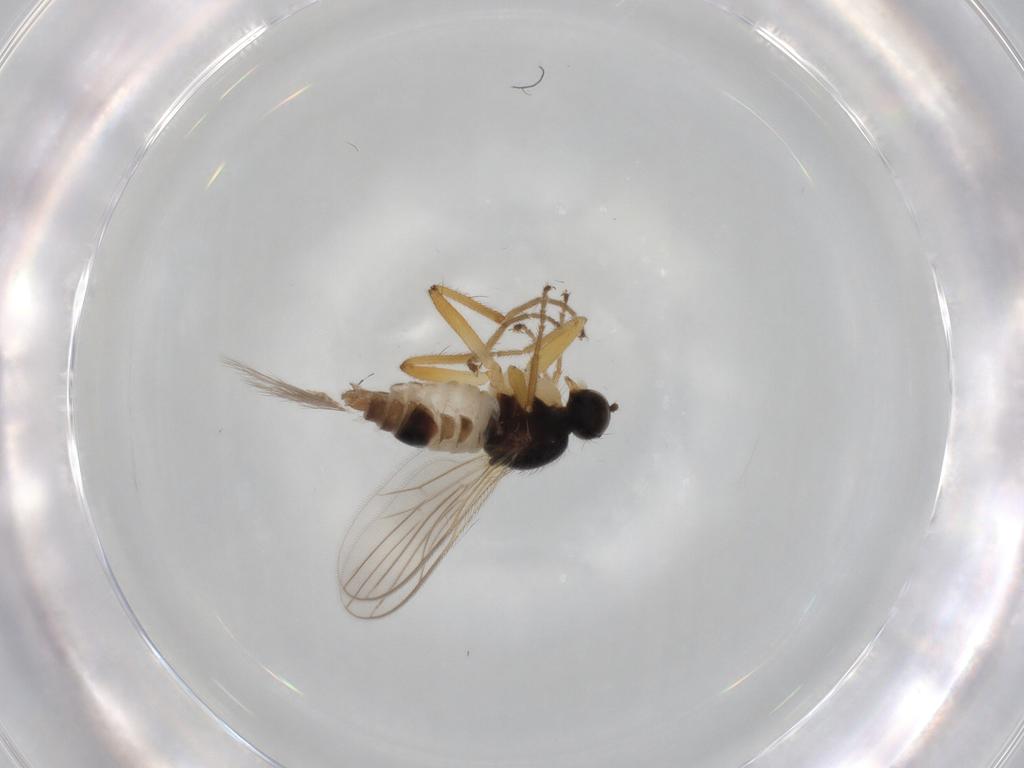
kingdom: Animalia
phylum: Arthropoda
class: Insecta
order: Diptera
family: Hybotidae
